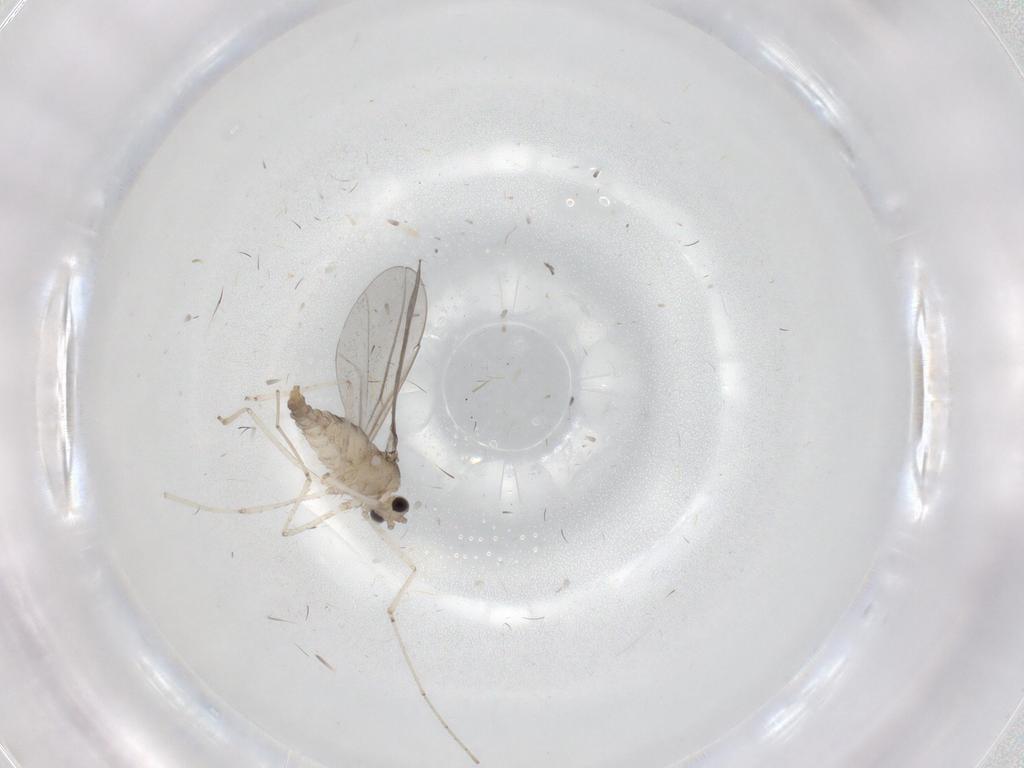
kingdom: Animalia
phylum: Arthropoda
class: Insecta
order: Diptera
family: Cecidomyiidae
